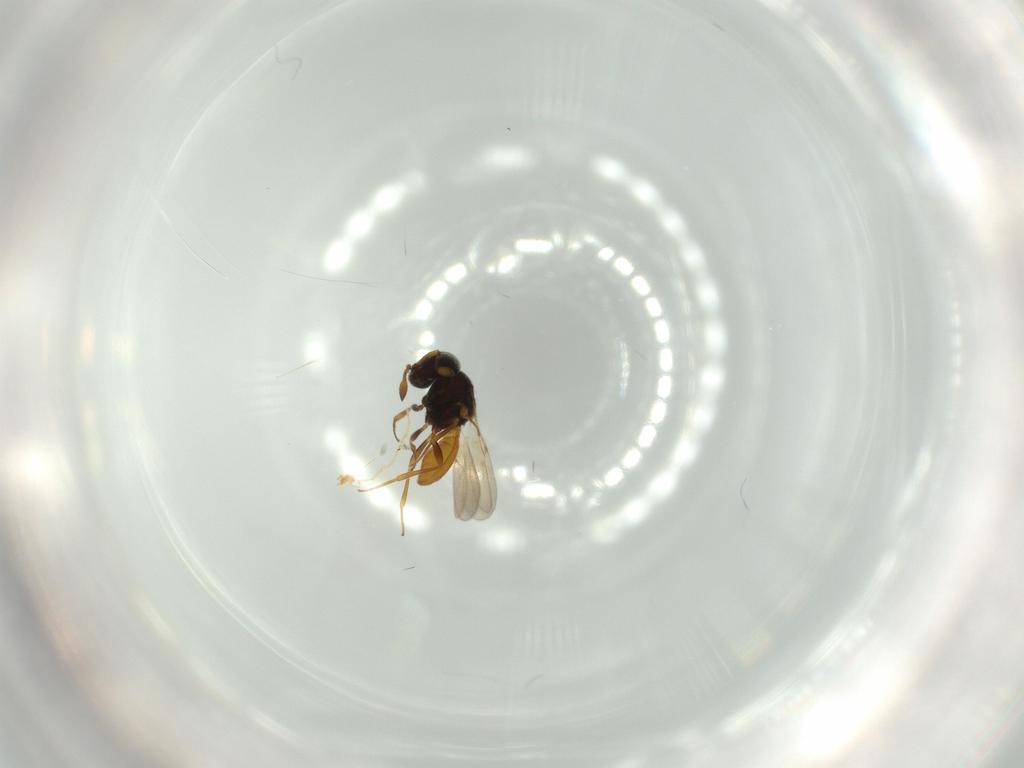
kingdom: Animalia
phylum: Arthropoda
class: Insecta
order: Hymenoptera
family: Scelionidae
